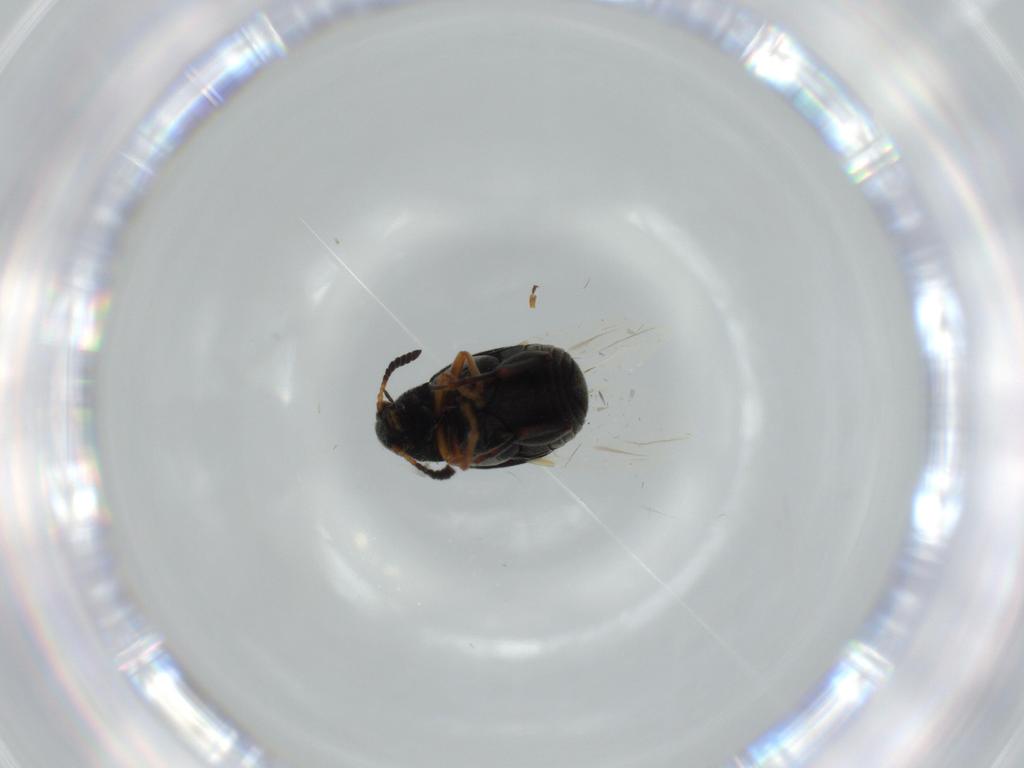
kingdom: Animalia
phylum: Arthropoda
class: Insecta
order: Coleoptera
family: Chrysomelidae
